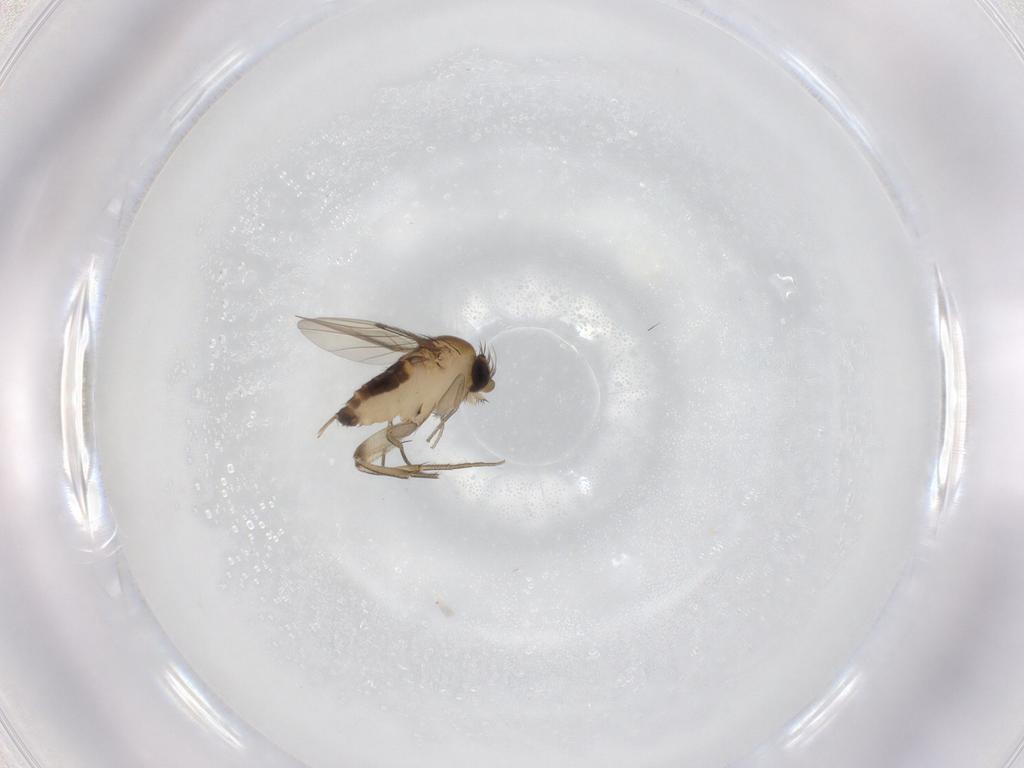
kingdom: Animalia
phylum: Arthropoda
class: Insecta
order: Diptera
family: Phoridae
